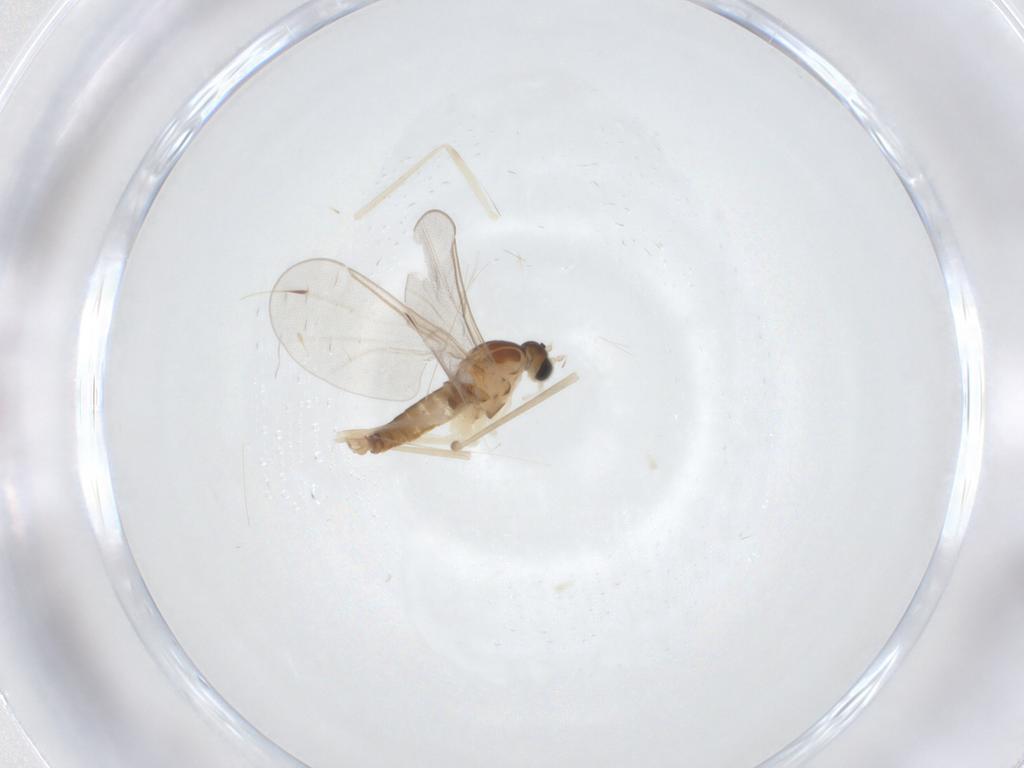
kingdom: Animalia
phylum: Arthropoda
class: Insecta
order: Diptera
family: Cecidomyiidae
